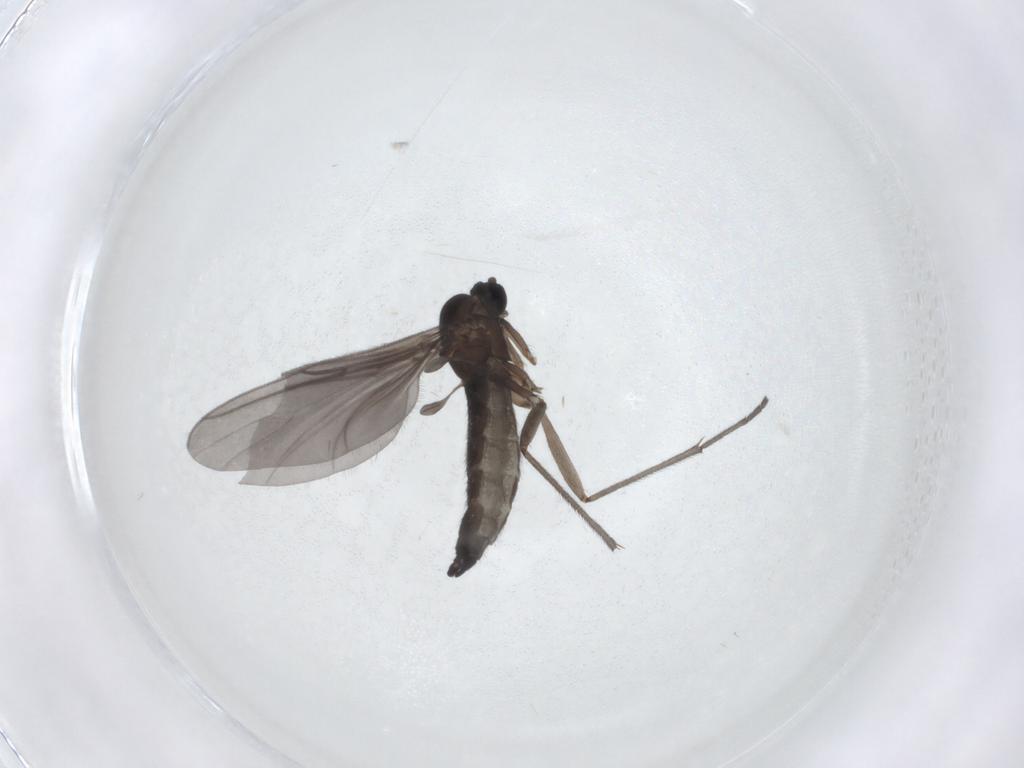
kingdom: Animalia
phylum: Arthropoda
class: Insecta
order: Diptera
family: Sciaridae
